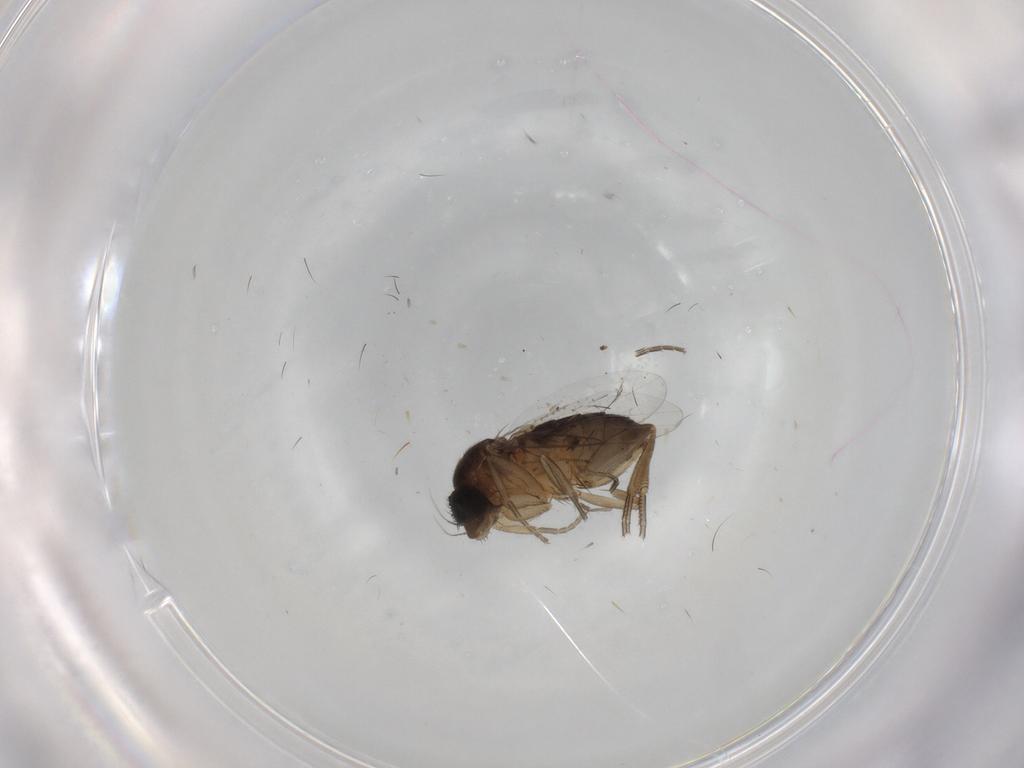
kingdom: Animalia
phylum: Arthropoda
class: Insecta
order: Diptera
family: Phoridae
